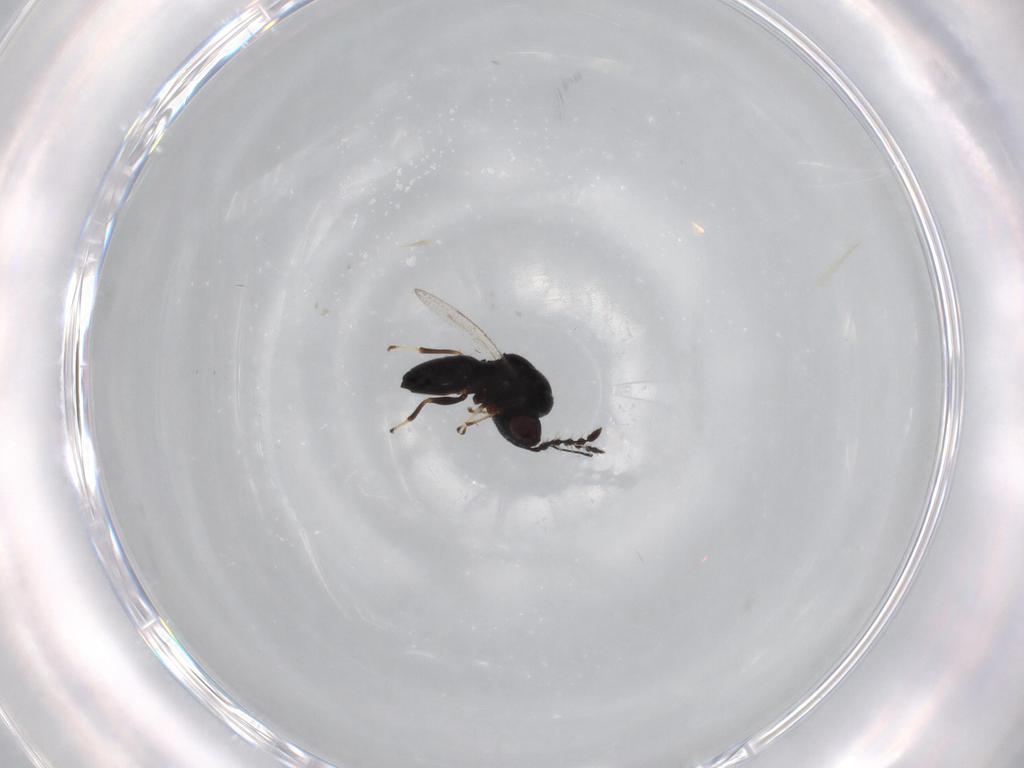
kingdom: Animalia
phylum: Arthropoda
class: Insecta
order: Hymenoptera
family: Eulophidae
